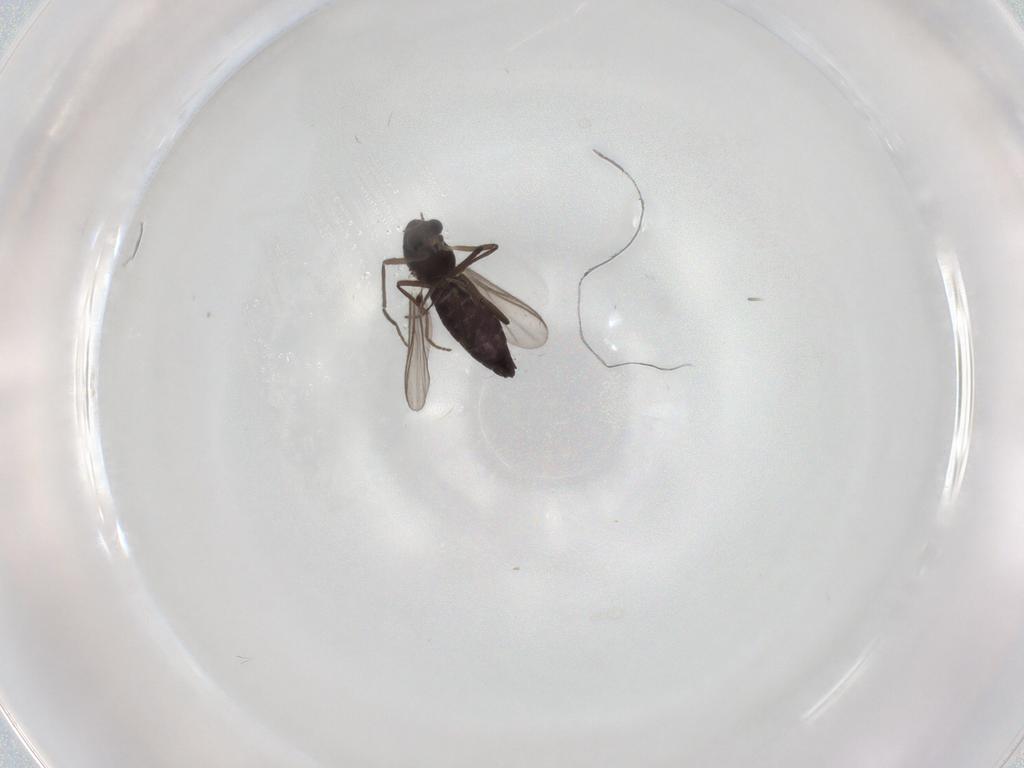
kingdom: Animalia
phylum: Arthropoda
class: Insecta
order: Diptera
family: Chironomidae
